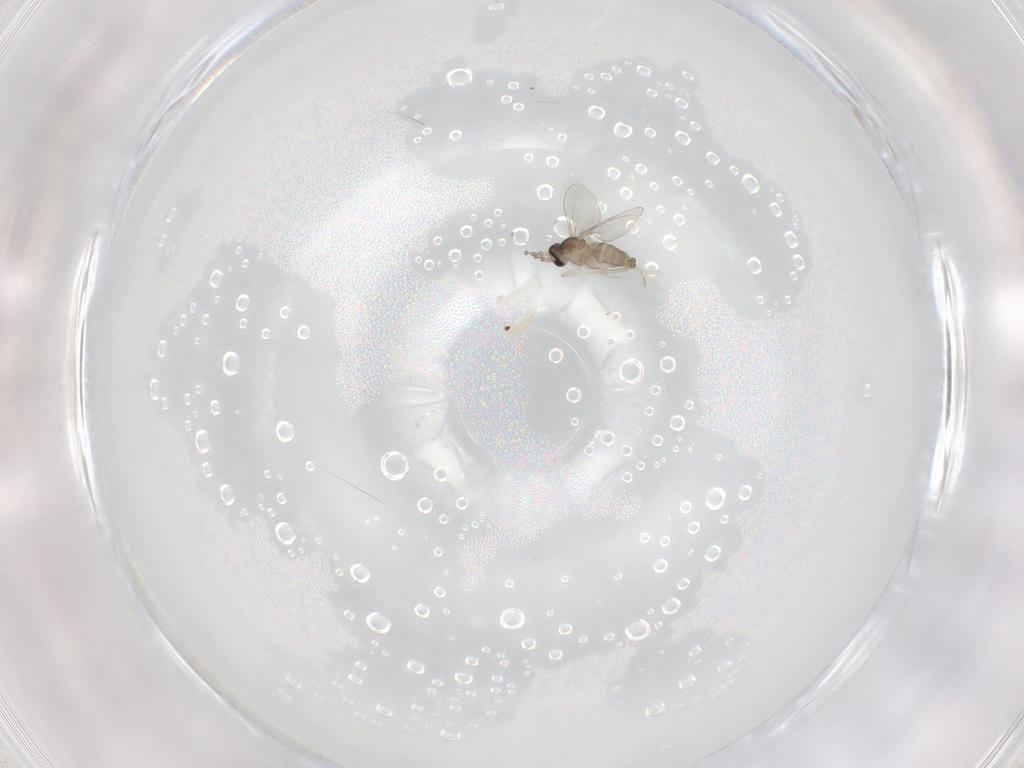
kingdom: Animalia
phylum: Arthropoda
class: Insecta
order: Diptera
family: Cecidomyiidae
